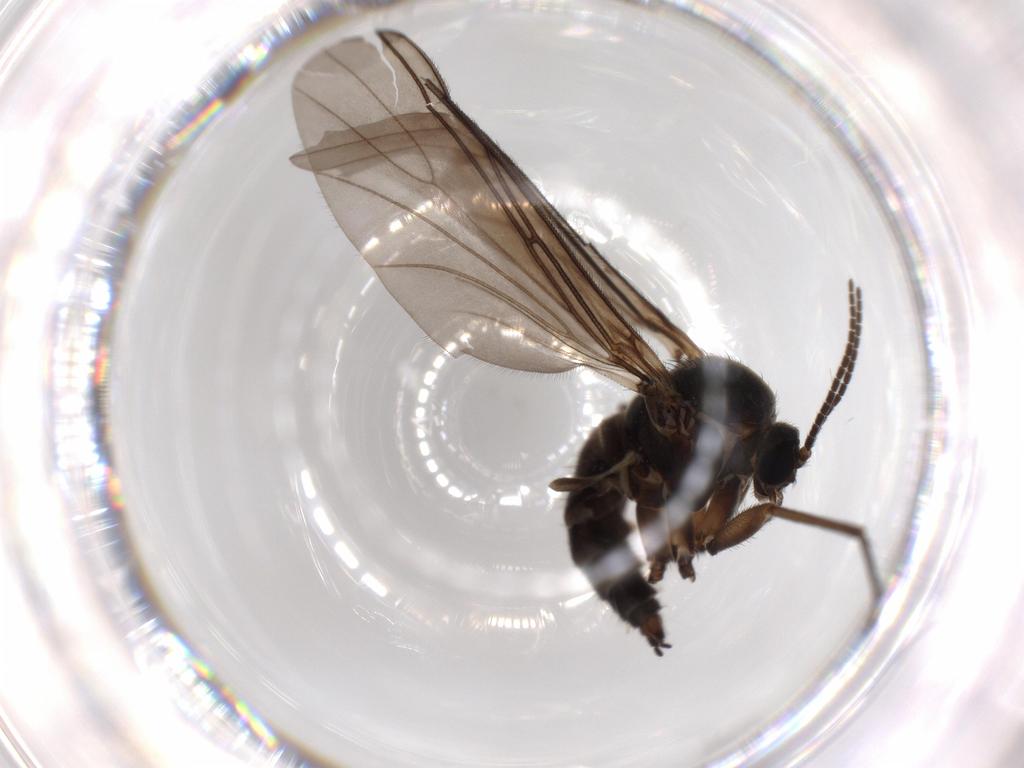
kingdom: Animalia
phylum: Arthropoda
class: Insecta
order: Diptera
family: Sciaridae
